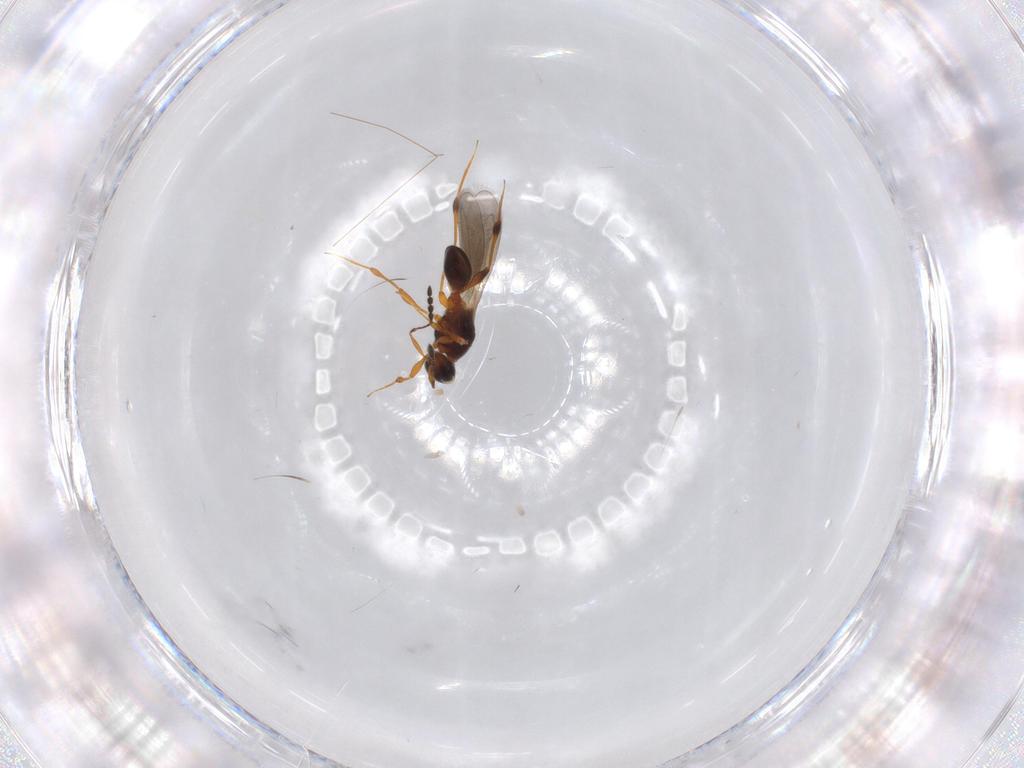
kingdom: Animalia
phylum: Arthropoda
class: Insecta
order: Hymenoptera
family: Platygastridae
